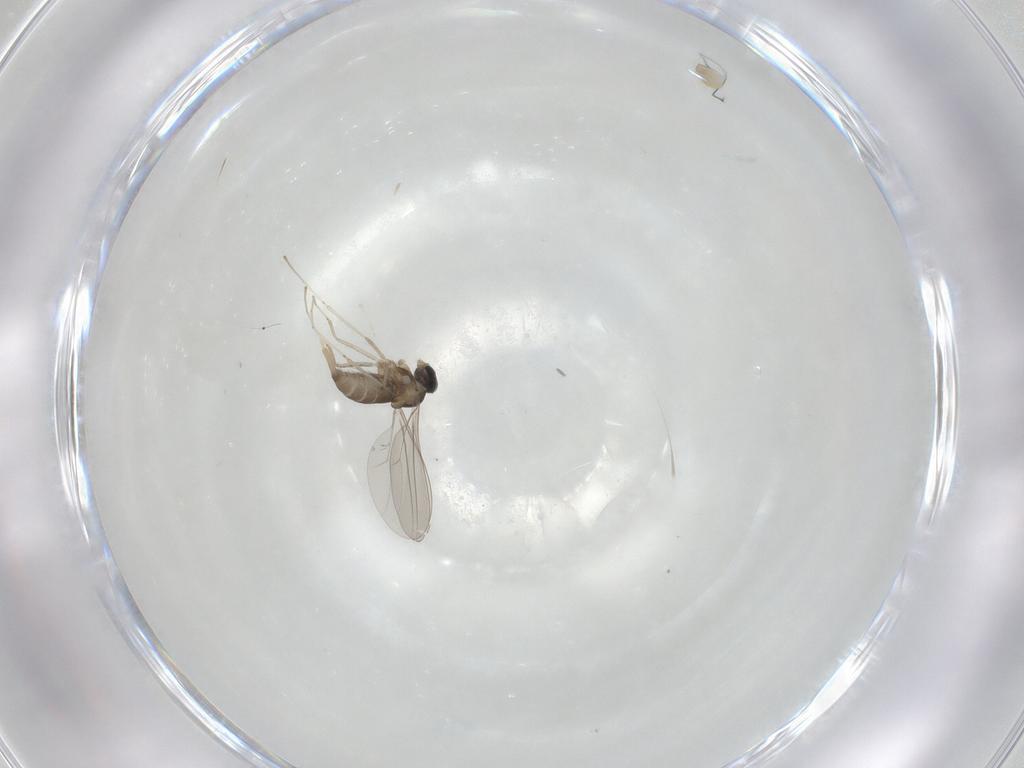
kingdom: Animalia
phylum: Arthropoda
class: Insecta
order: Diptera
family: Cecidomyiidae
